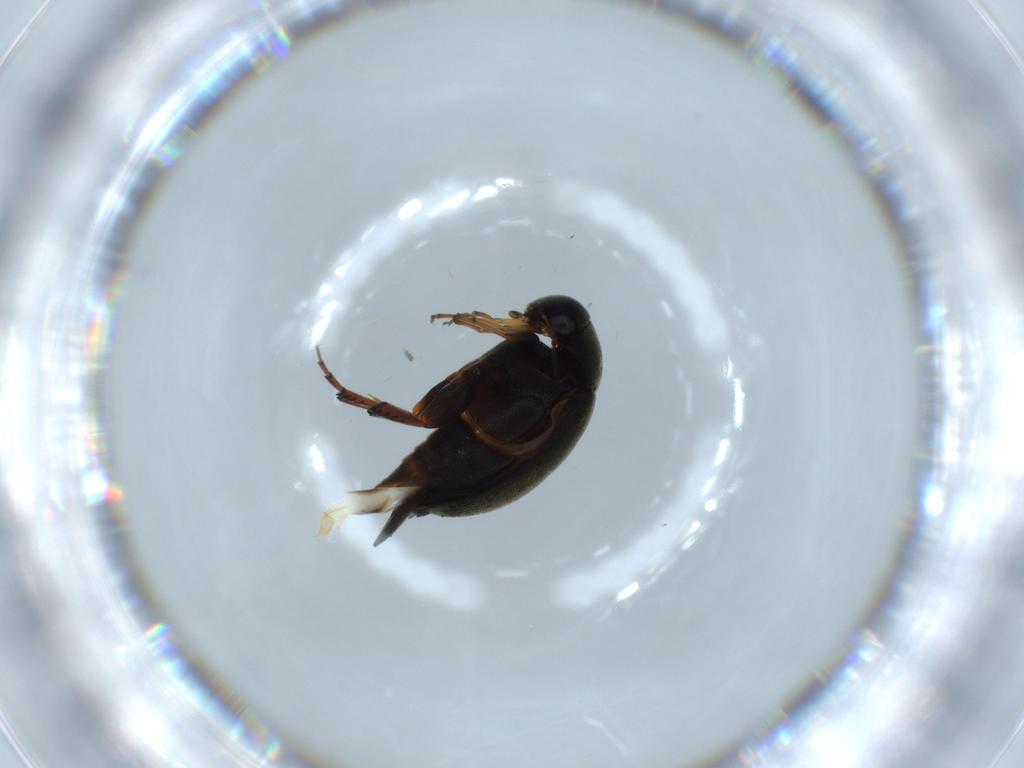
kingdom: Animalia
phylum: Arthropoda
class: Insecta
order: Coleoptera
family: Mordellidae
